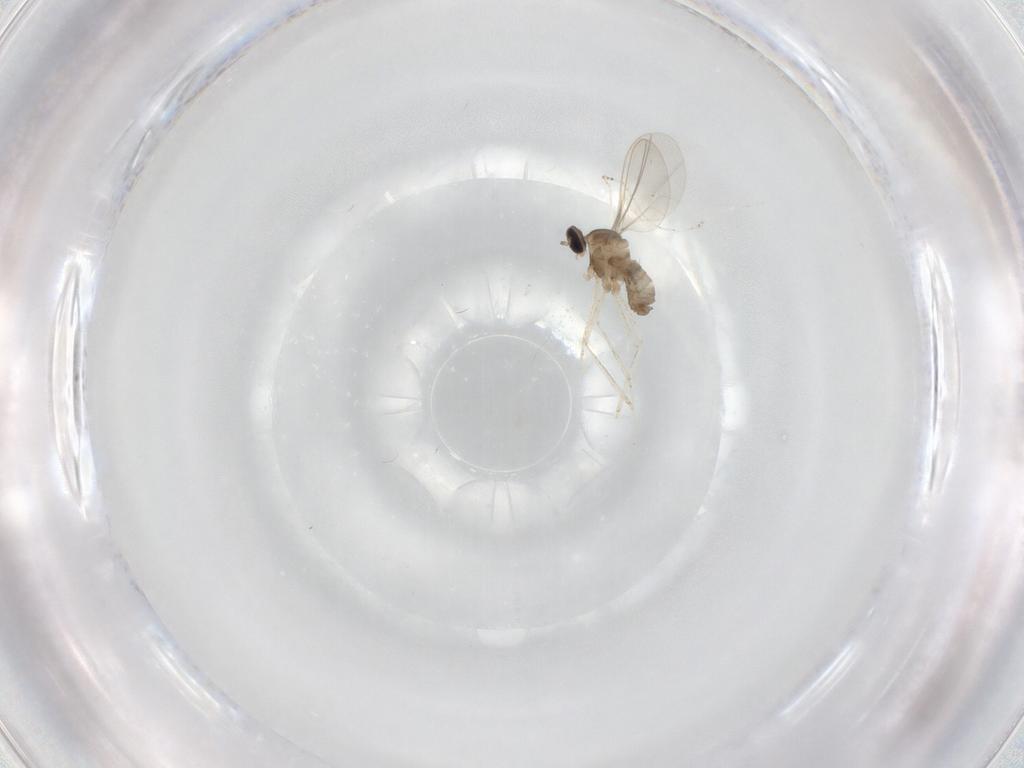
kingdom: Animalia
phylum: Arthropoda
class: Insecta
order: Diptera
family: Cecidomyiidae
